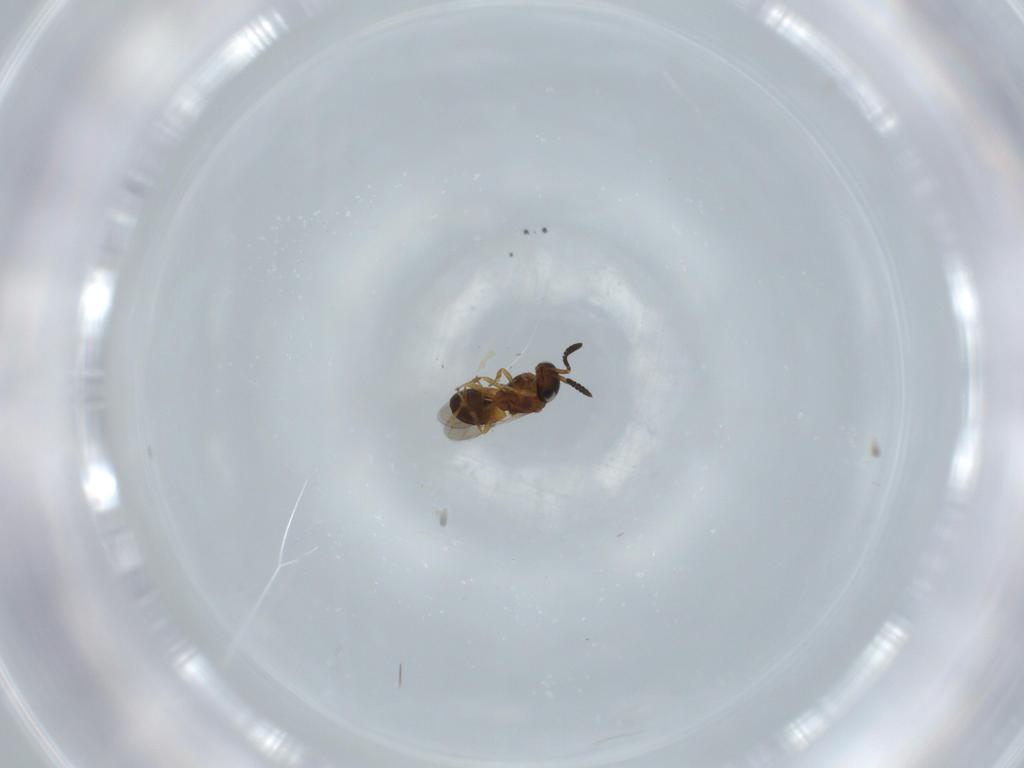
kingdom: Animalia
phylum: Arthropoda
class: Insecta
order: Hymenoptera
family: Scelionidae
